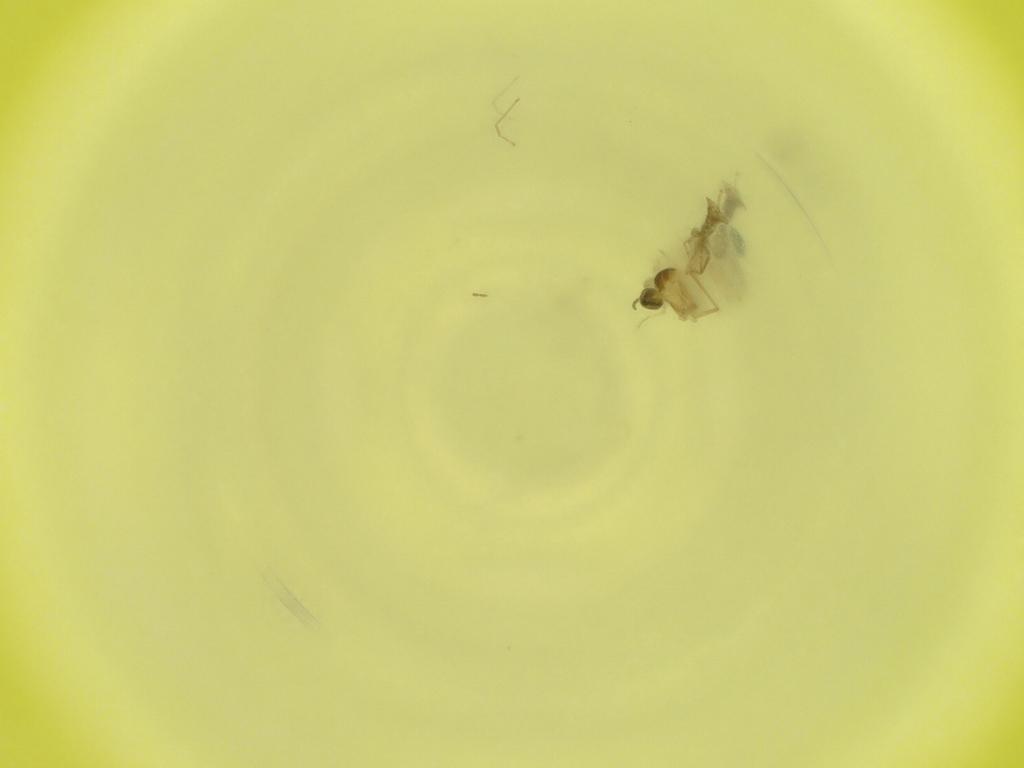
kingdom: Animalia
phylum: Arthropoda
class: Insecta
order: Diptera
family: Cecidomyiidae
